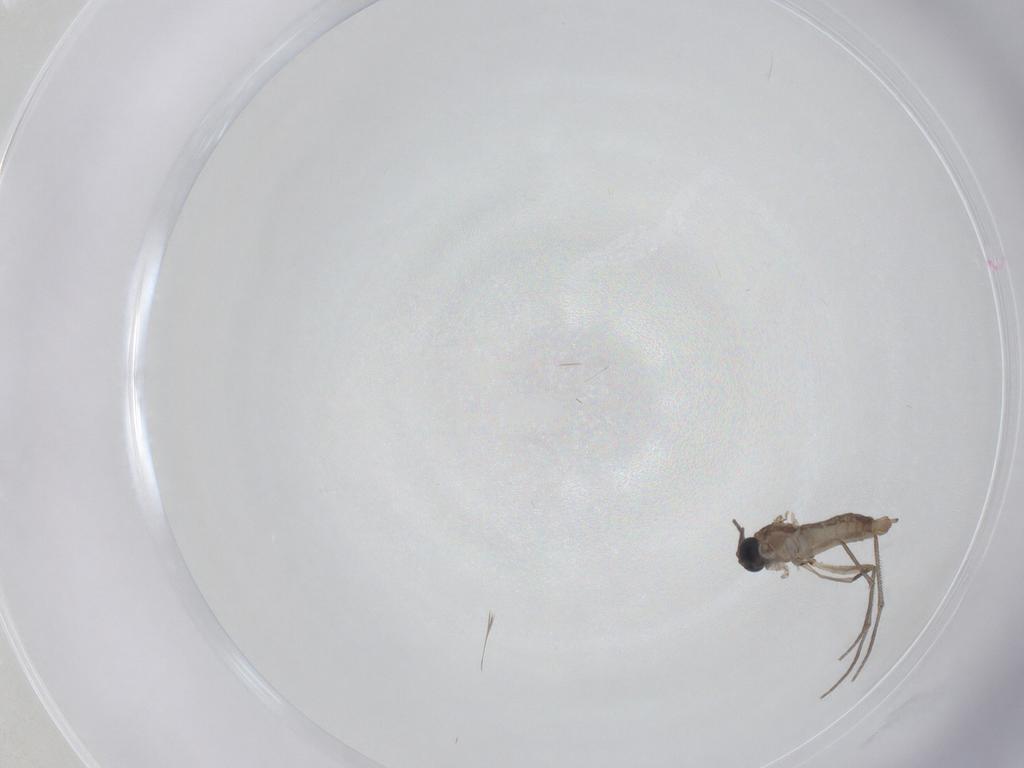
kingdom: Animalia
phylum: Arthropoda
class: Insecta
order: Diptera
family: Sciaridae
